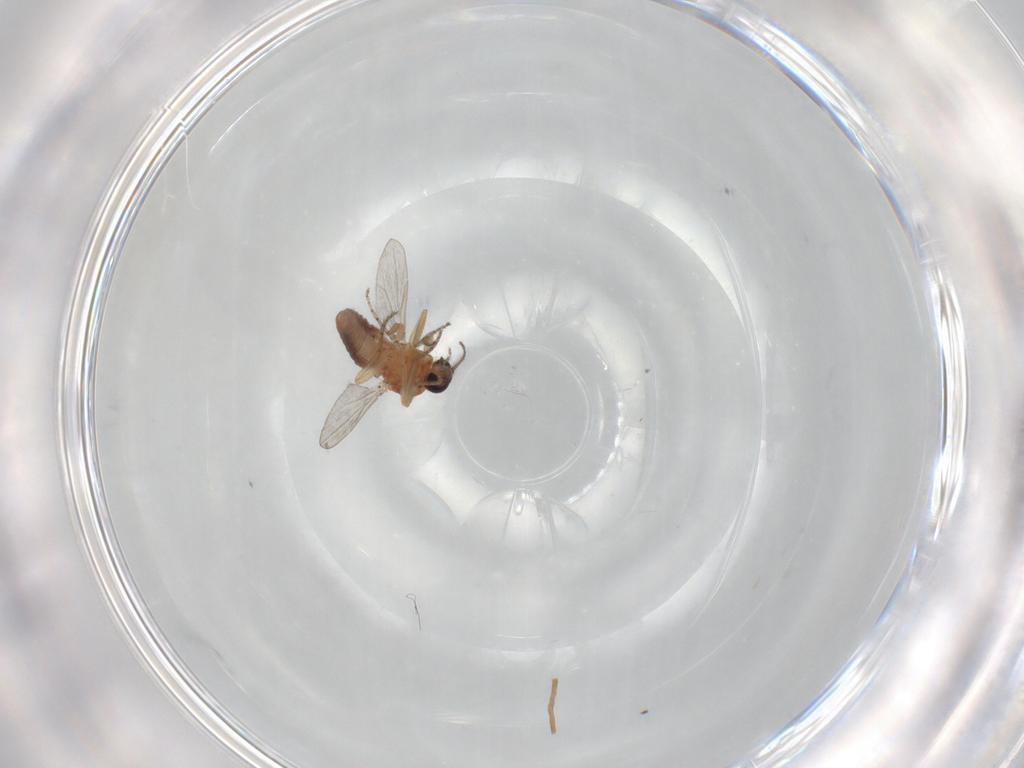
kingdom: Animalia
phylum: Arthropoda
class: Insecta
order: Diptera
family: Ceratopogonidae
